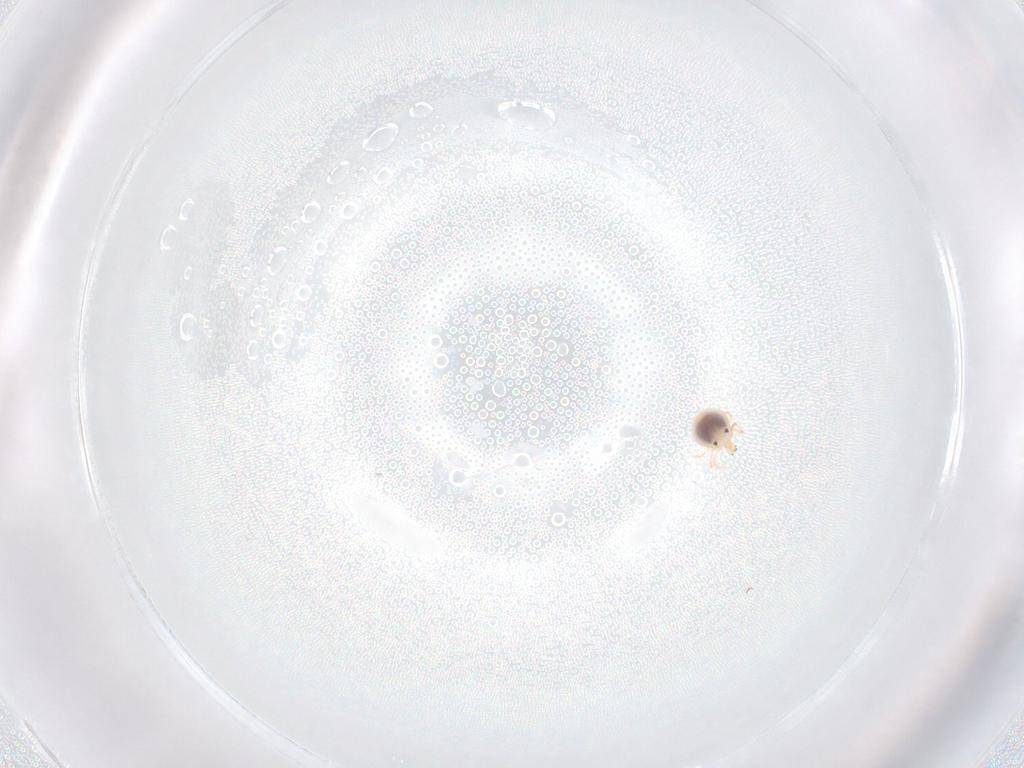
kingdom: Animalia
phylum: Arthropoda
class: Arachnida
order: Trombidiformes
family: Pionidae
